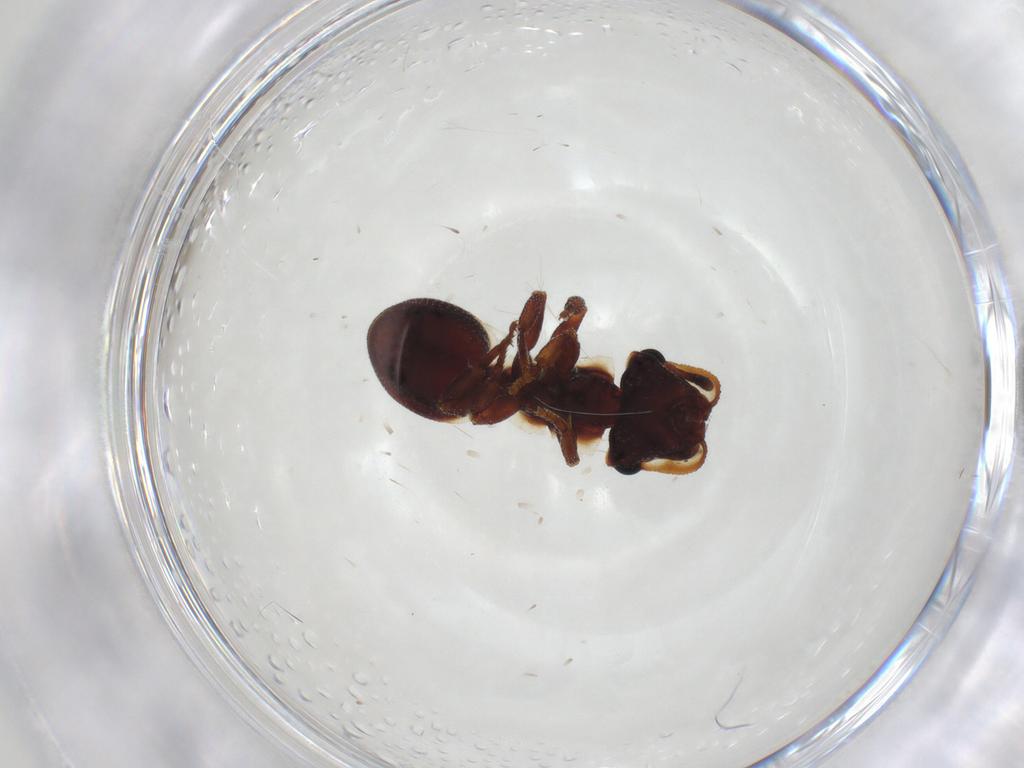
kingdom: Animalia
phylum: Arthropoda
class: Insecta
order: Hymenoptera
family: Formicidae
